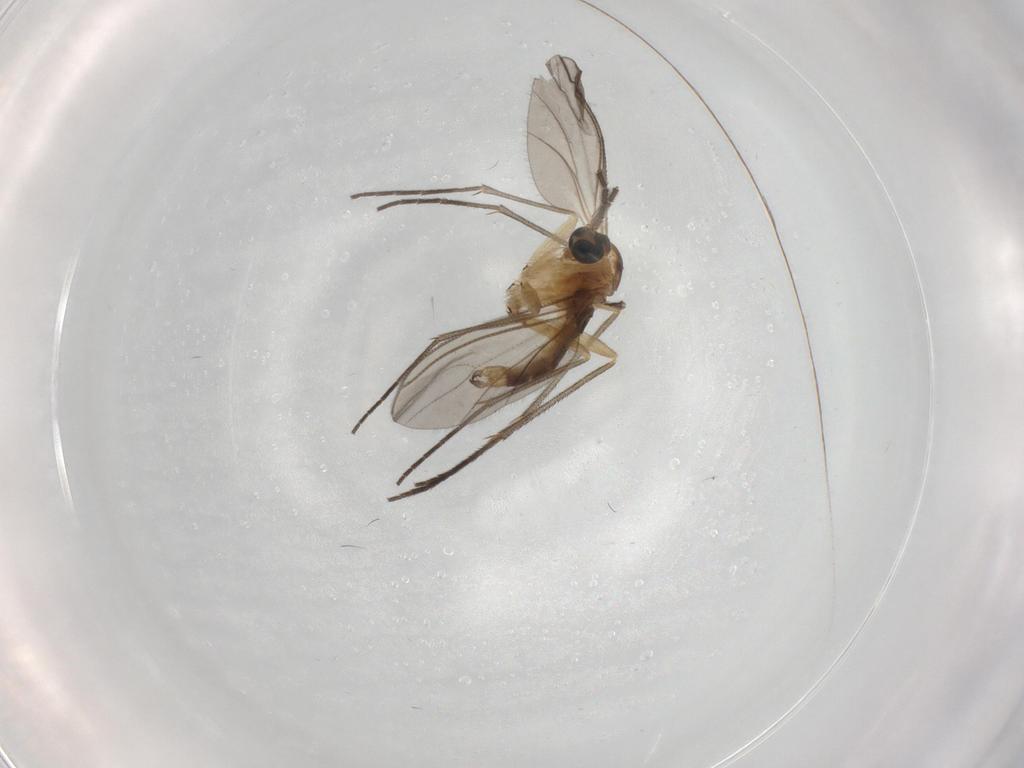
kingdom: Animalia
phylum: Arthropoda
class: Insecta
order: Diptera
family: Sciaridae
